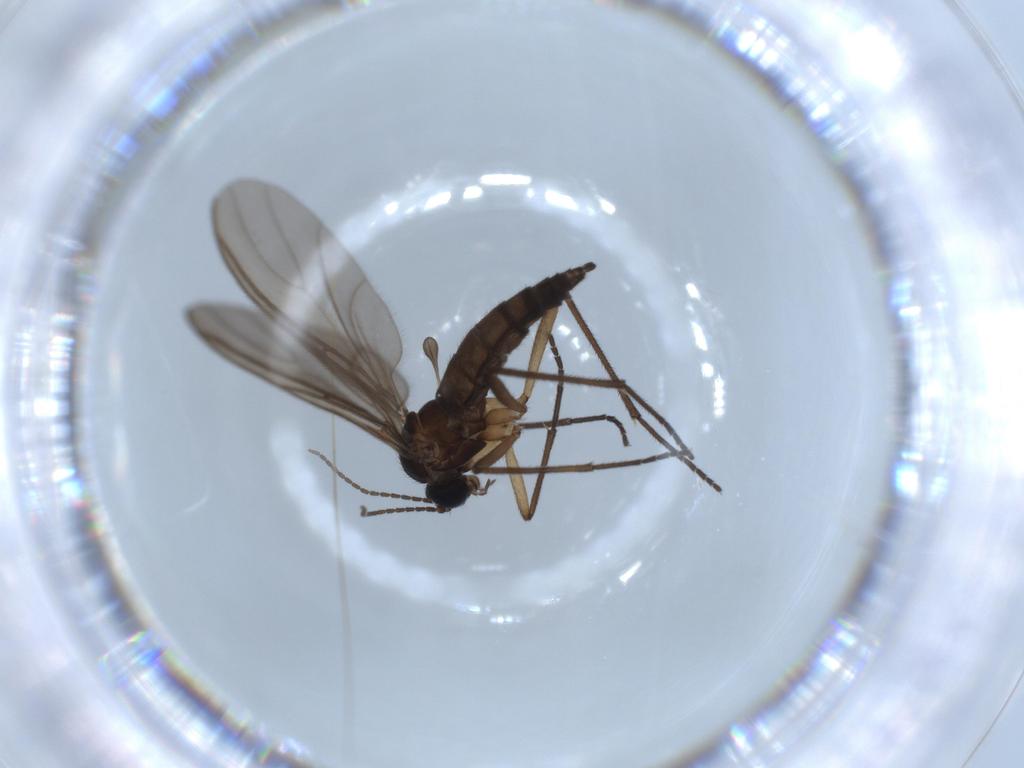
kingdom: Animalia
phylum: Arthropoda
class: Insecta
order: Diptera
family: Sciaridae
